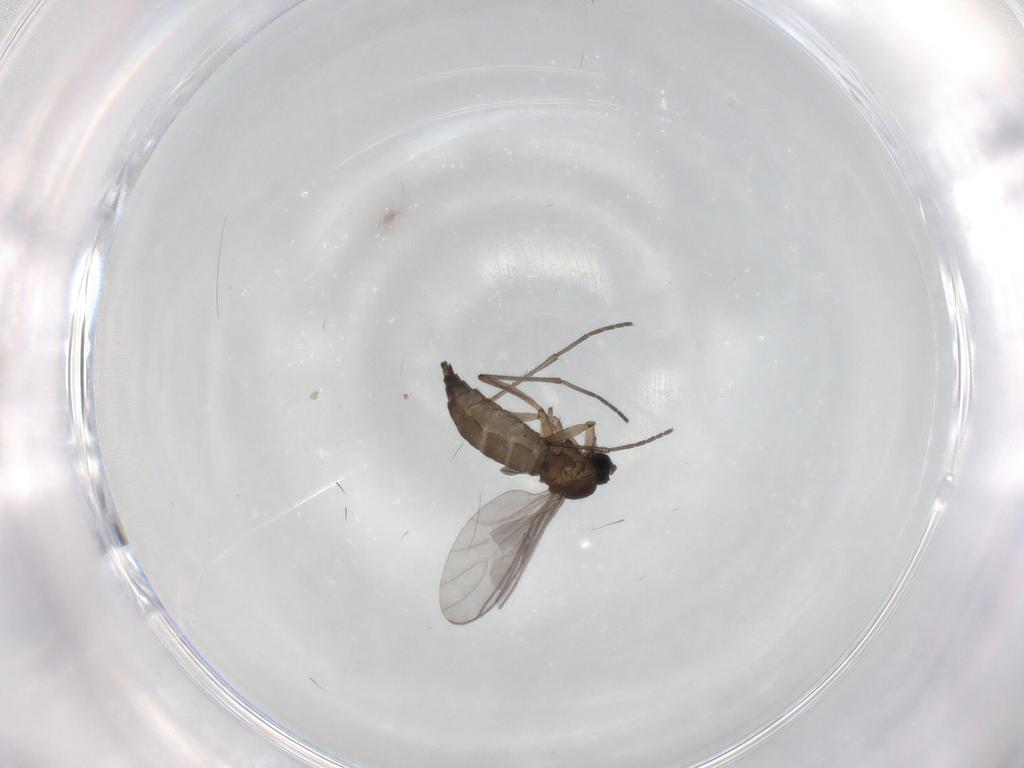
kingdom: Animalia
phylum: Arthropoda
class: Insecta
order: Diptera
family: Sciaridae
